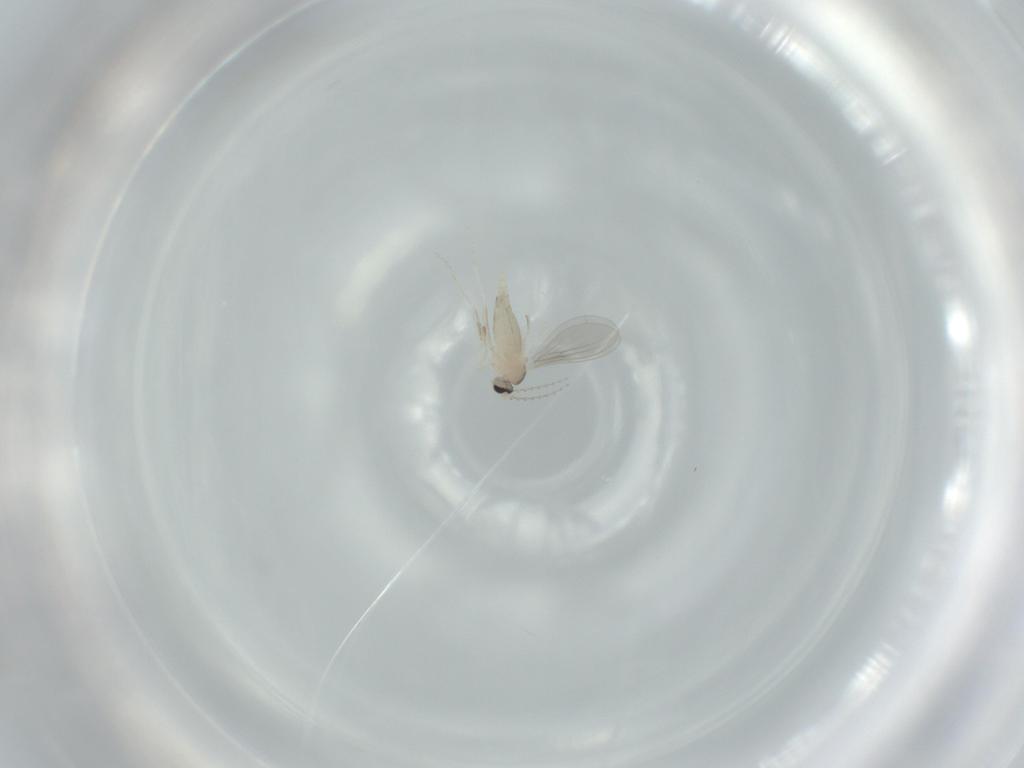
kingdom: Animalia
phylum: Arthropoda
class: Insecta
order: Diptera
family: Cecidomyiidae
